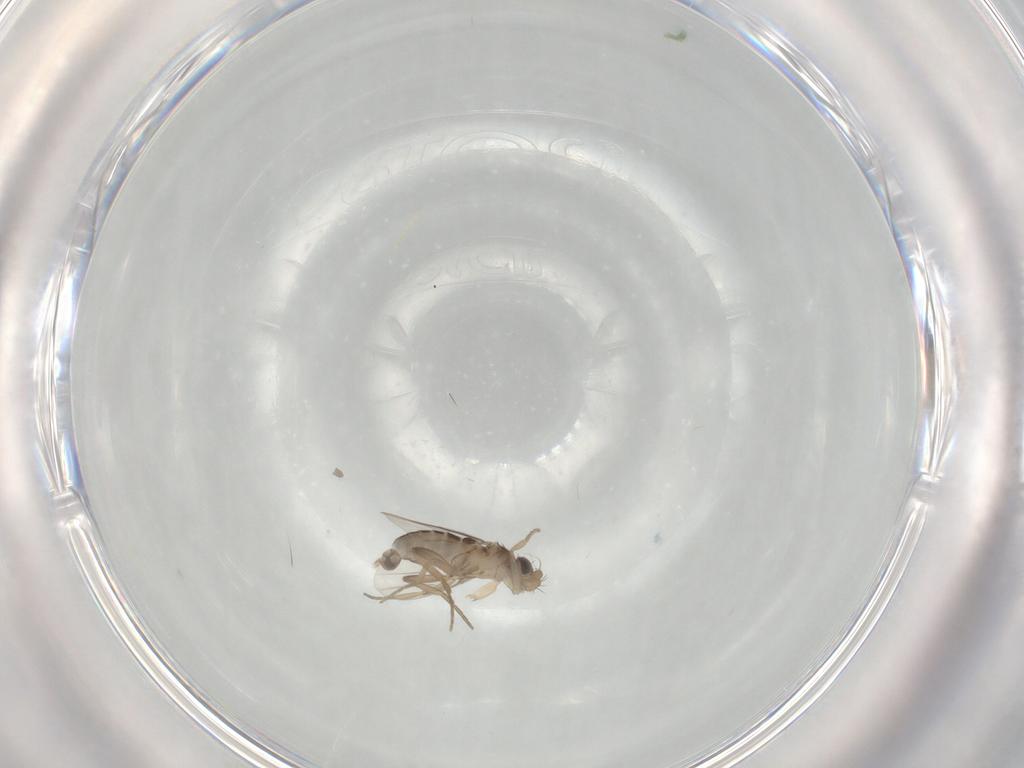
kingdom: Animalia
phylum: Arthropoda
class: Insecta
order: Diptera
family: Phoridae
